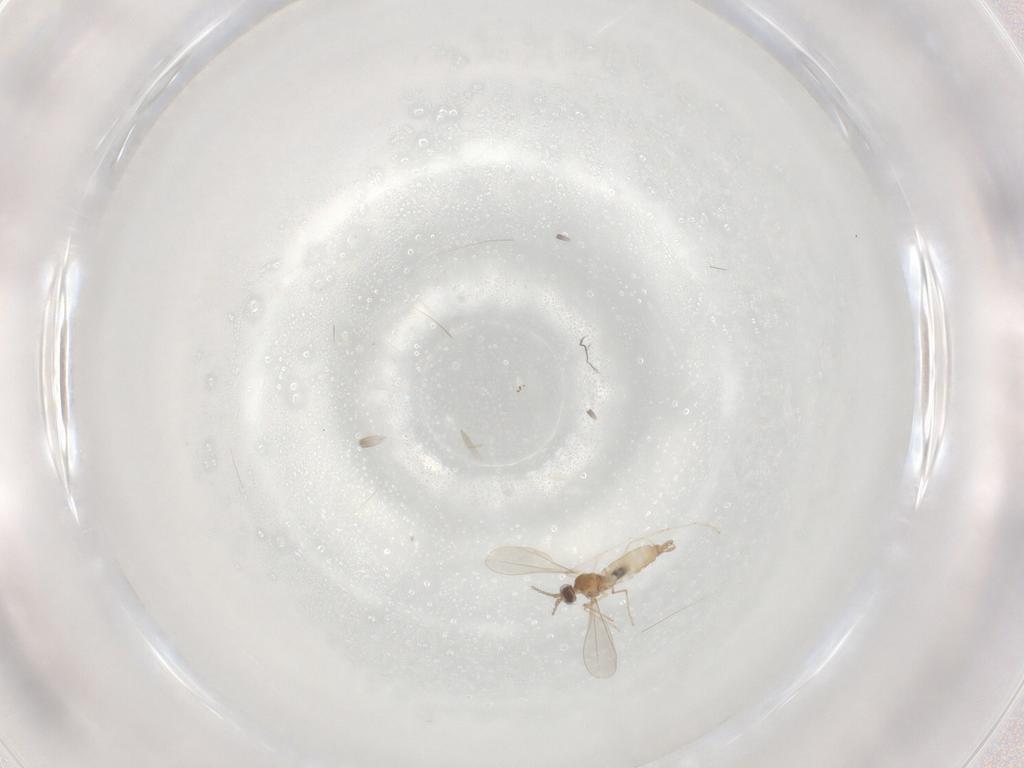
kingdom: Animalia
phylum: Arthropoda
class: Insecta
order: Diptera
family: Cecidomyiidae
